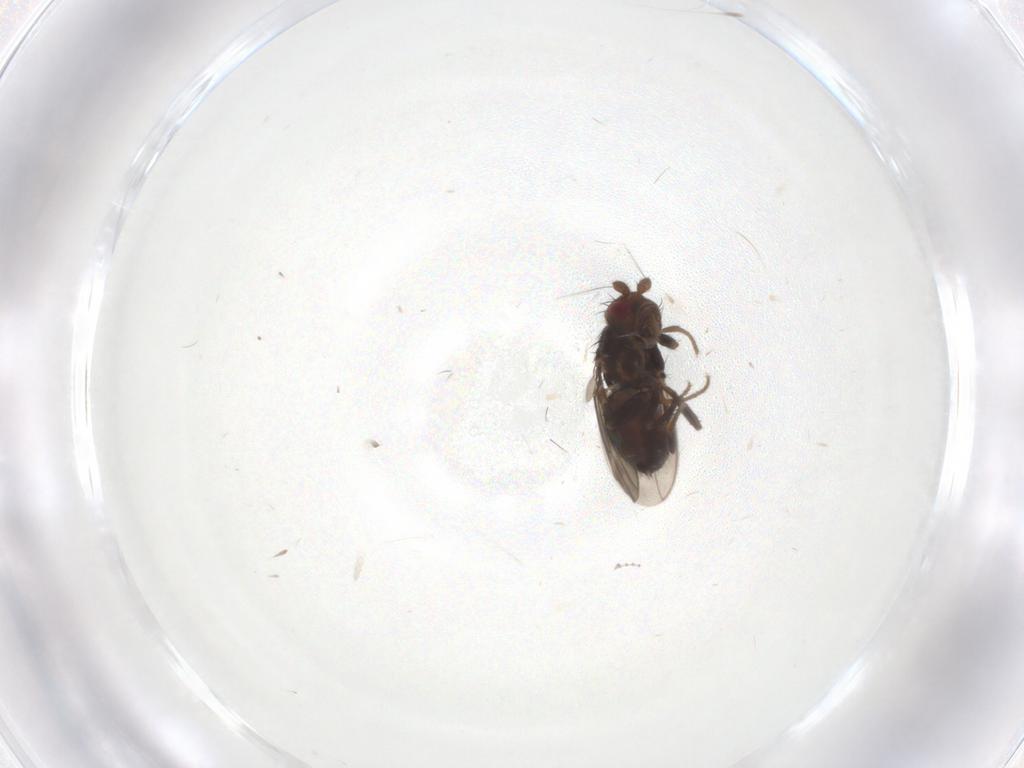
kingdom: Animalia
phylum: Arthropoda
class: Insecta
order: Diptera
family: Sphaeroceridae
